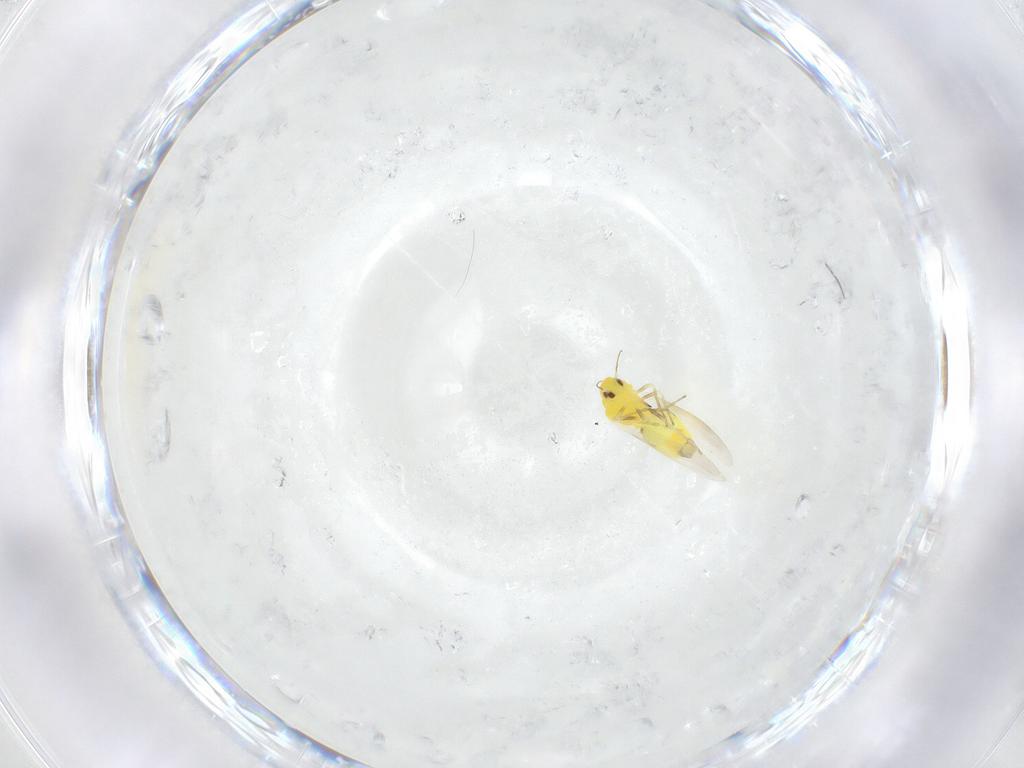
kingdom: Animalia
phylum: Arthropoda
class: Insecta
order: Hemiptera
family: Aleyrodidae
